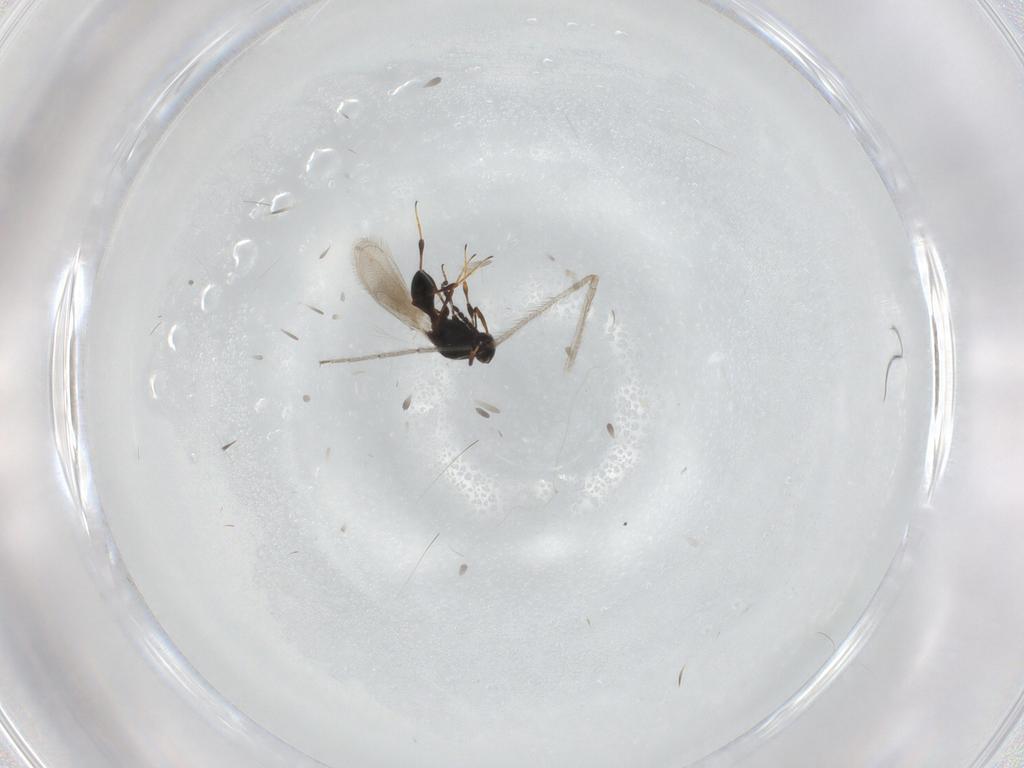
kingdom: Animalia
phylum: Arthropoda
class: Insecta
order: Hymenoptera
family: Platygastridae
